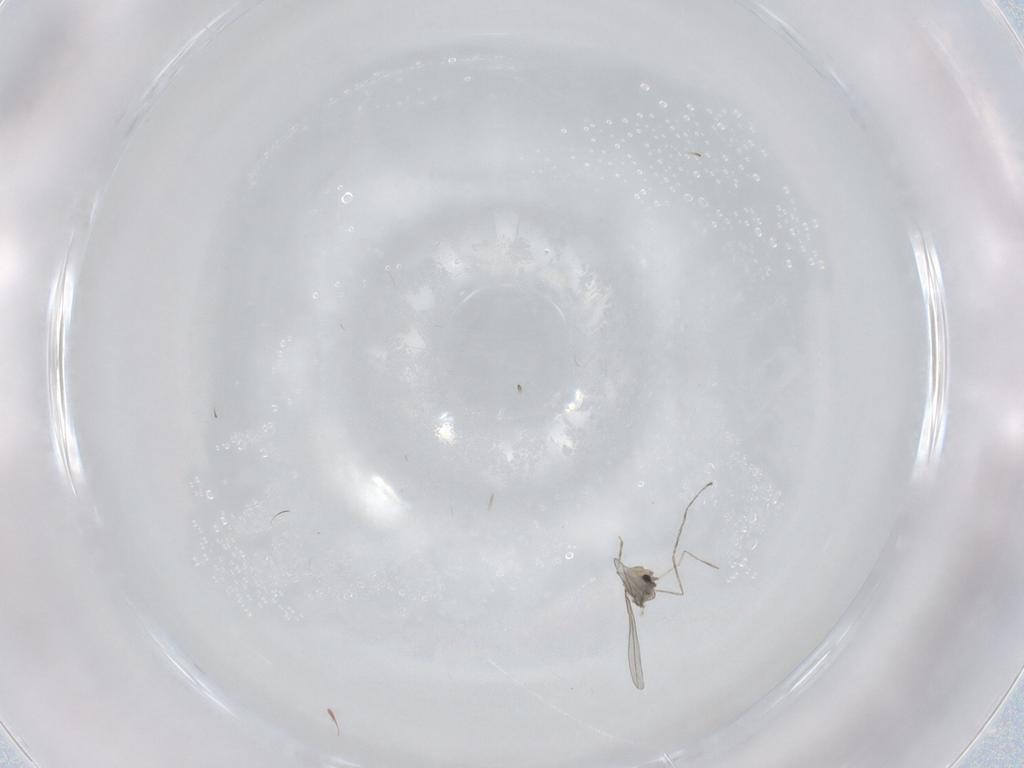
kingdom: Animalia
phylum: Arthropoda
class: Insecta
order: Diptera
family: Cecidomyiidae
